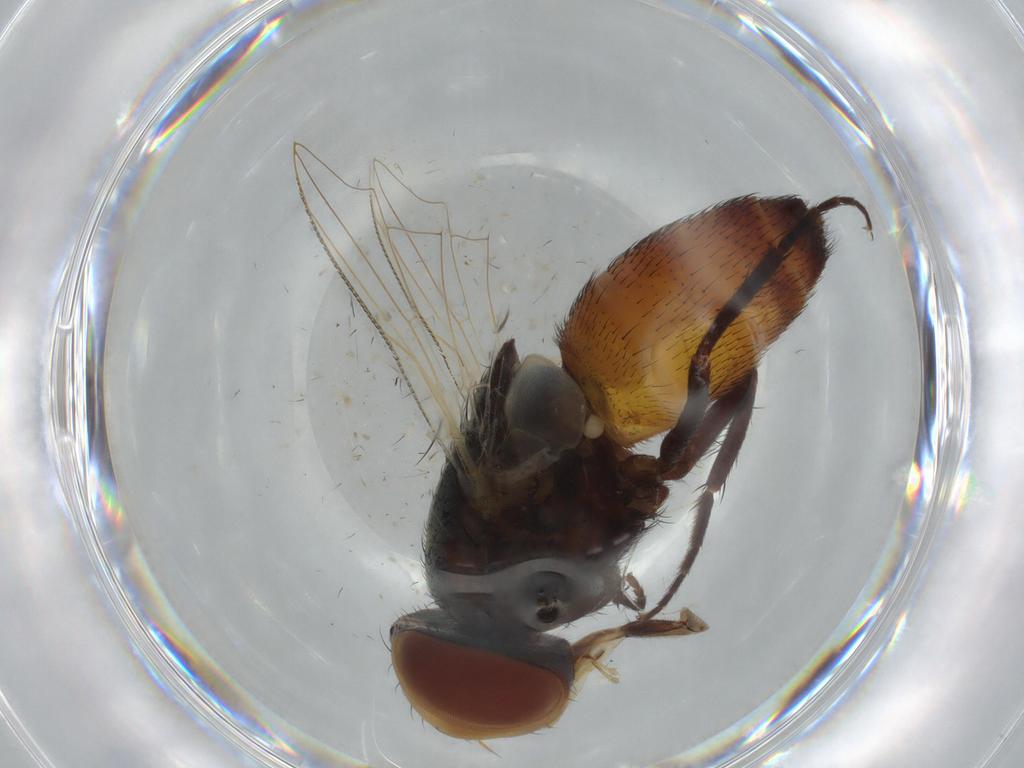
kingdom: Animalia
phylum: Arthropoda
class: Insecta
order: Diptera
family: Sarcophagidae
